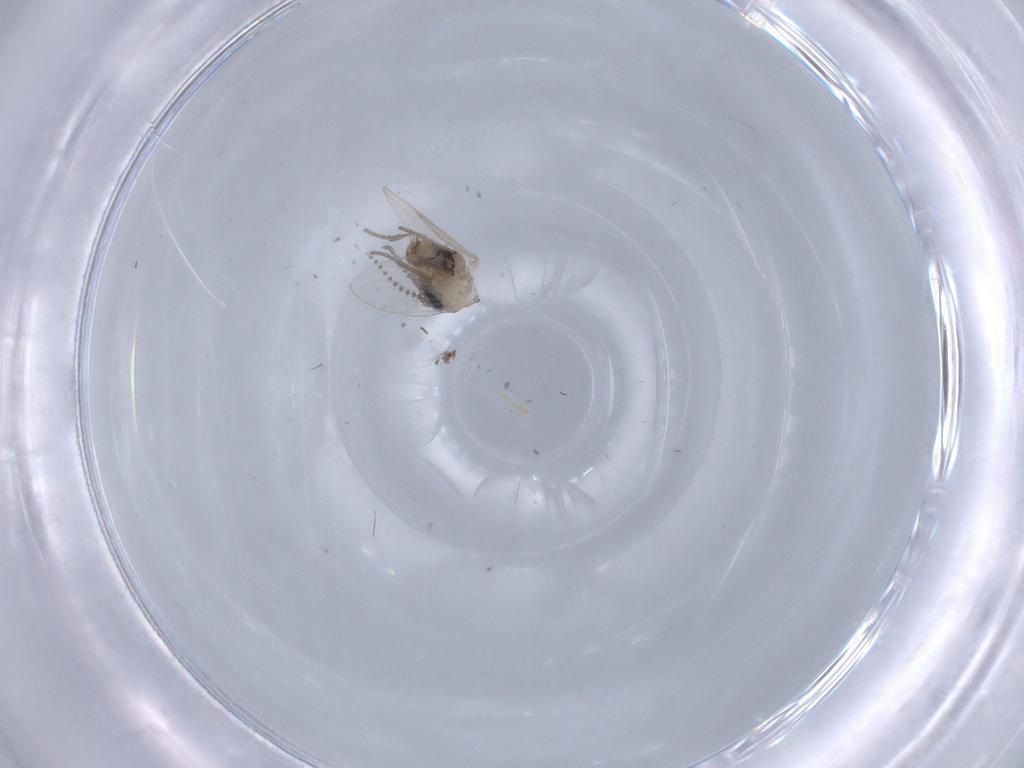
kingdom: Animalia
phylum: Arthropoda
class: Insecta
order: Diptera
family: Psychodidae
